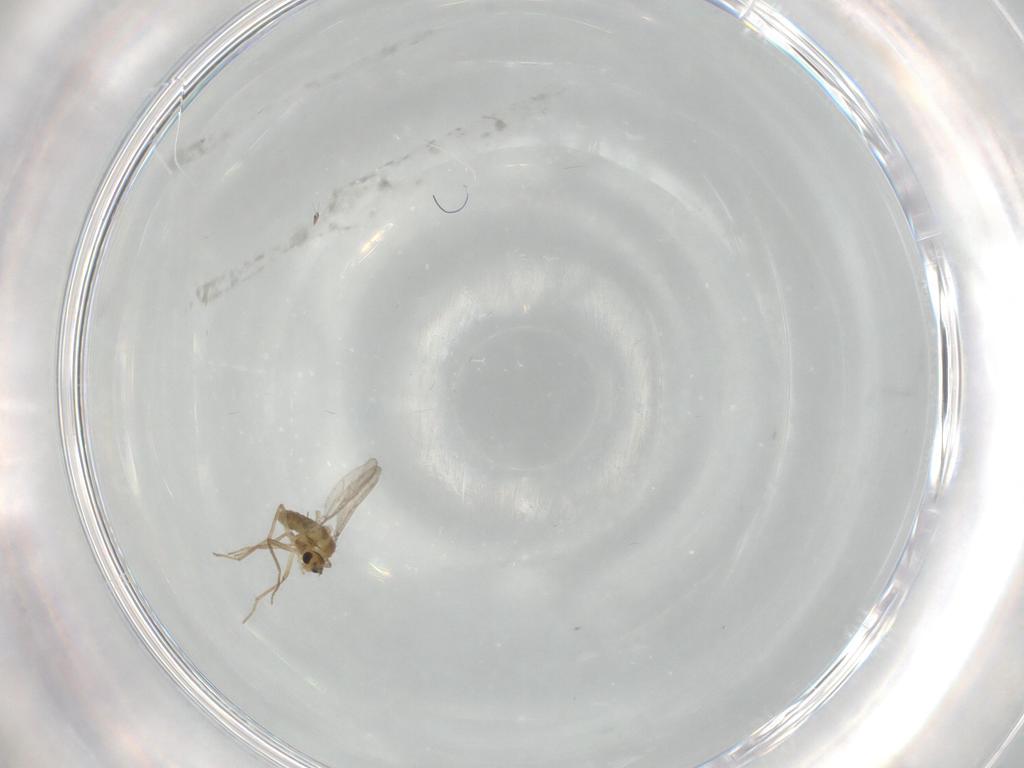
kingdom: Animalia
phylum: Arthropoda
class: Insecta
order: Diptera
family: Chironomidae
